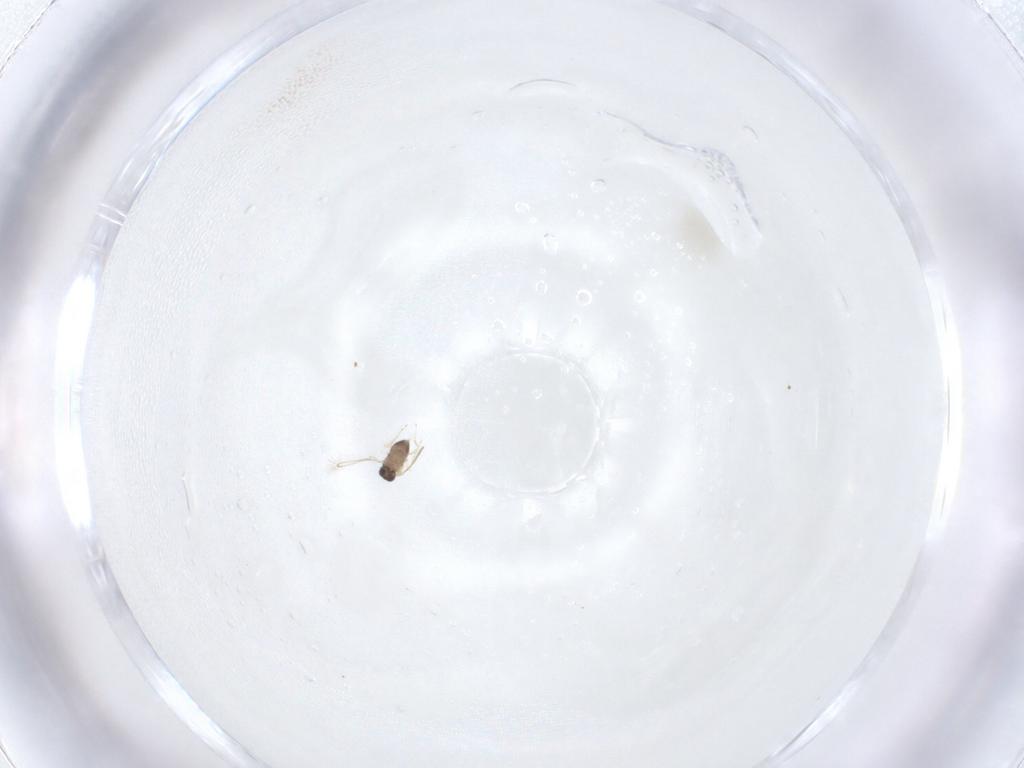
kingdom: Animalia
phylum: Arthropoda
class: Insecta
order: Hymenoptera
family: Mymaridae
